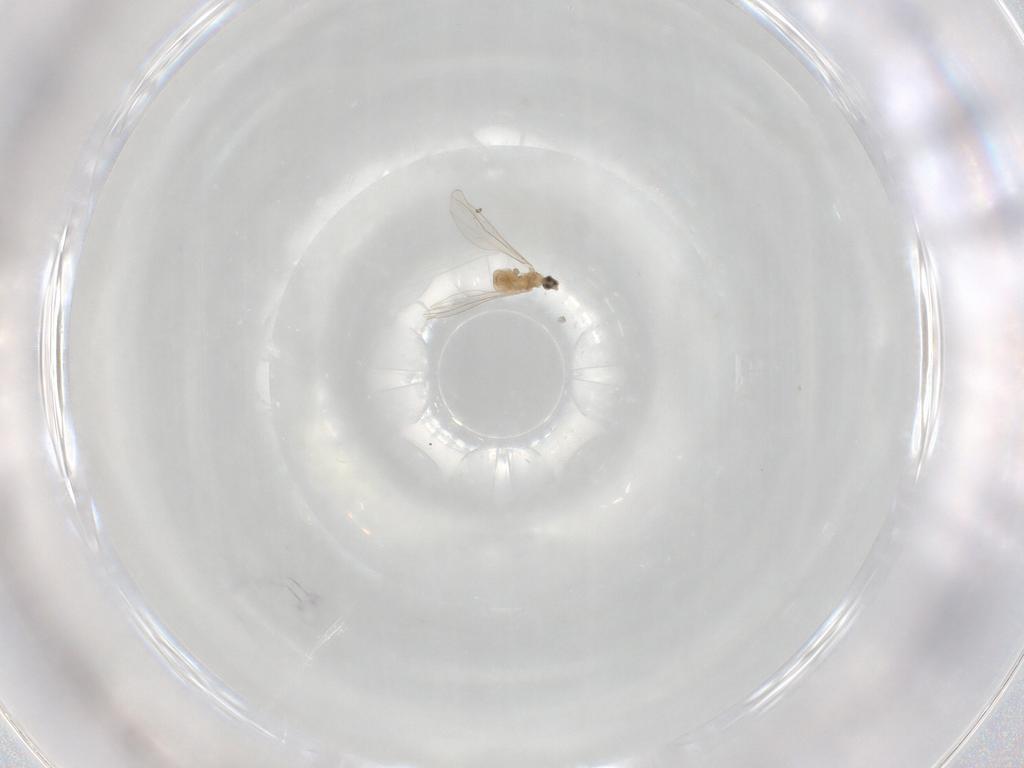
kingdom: Animalia
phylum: Arthropoda
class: Insecta
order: Diptera
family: Cecidomyiidae
